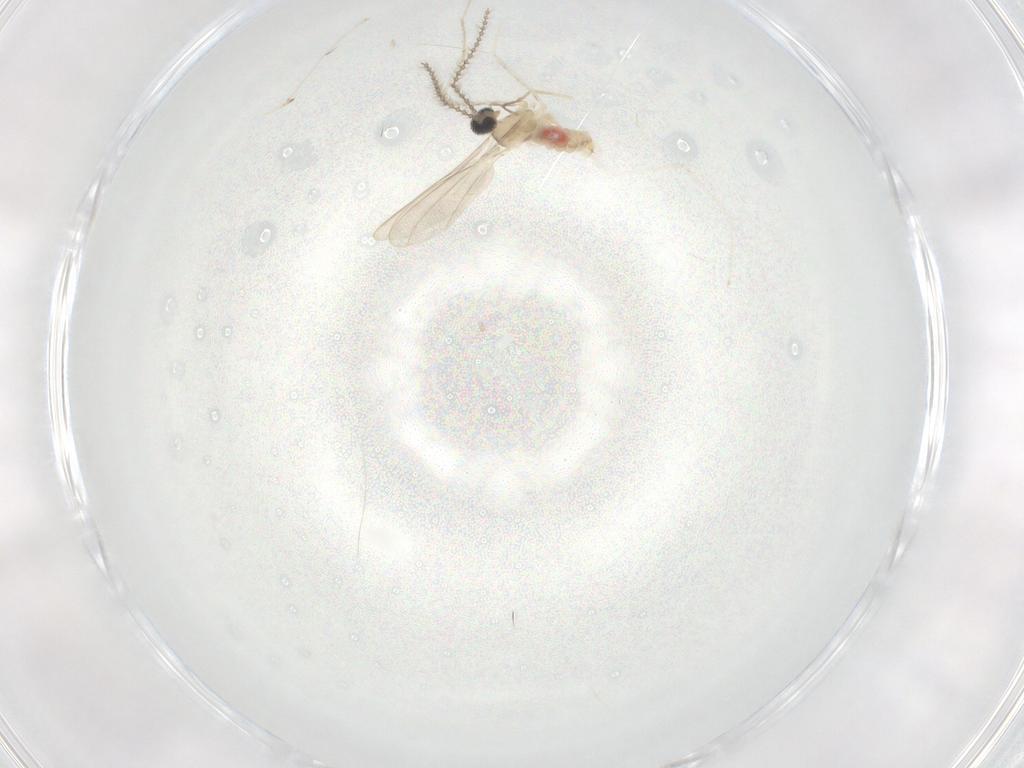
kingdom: Animalia
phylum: Arthropoda
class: Insecta
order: Diptera
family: Cecidomyiidae
